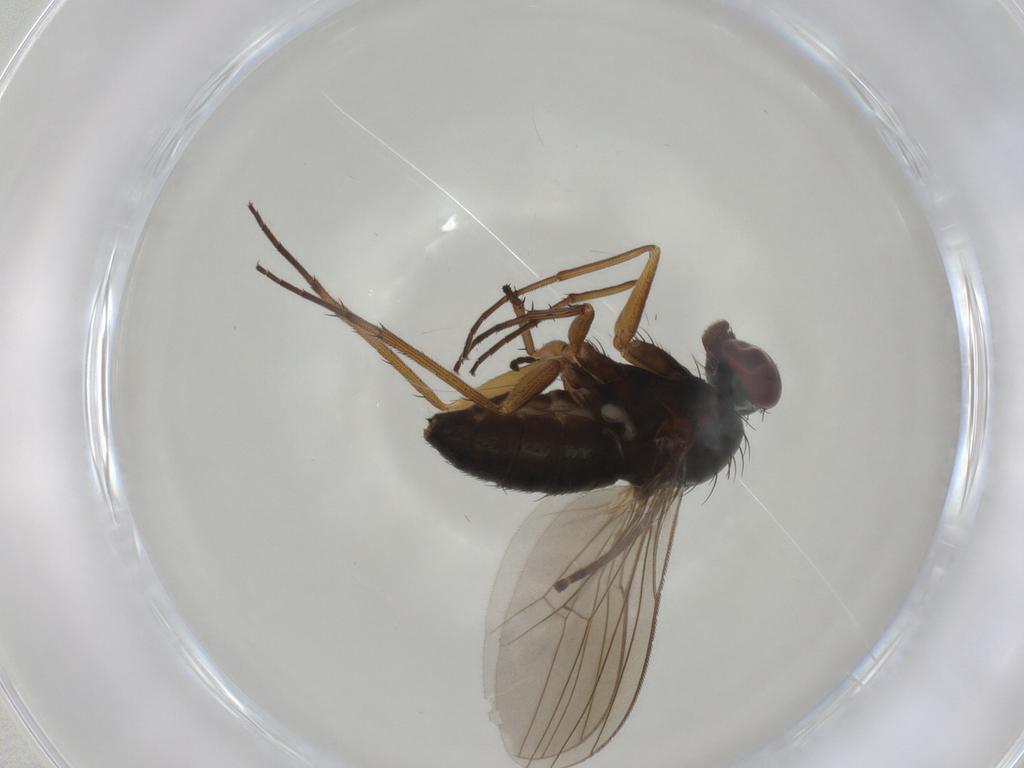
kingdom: Animalia
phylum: Arthropoda
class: Insecta
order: Diptera
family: Dolichopodidae
